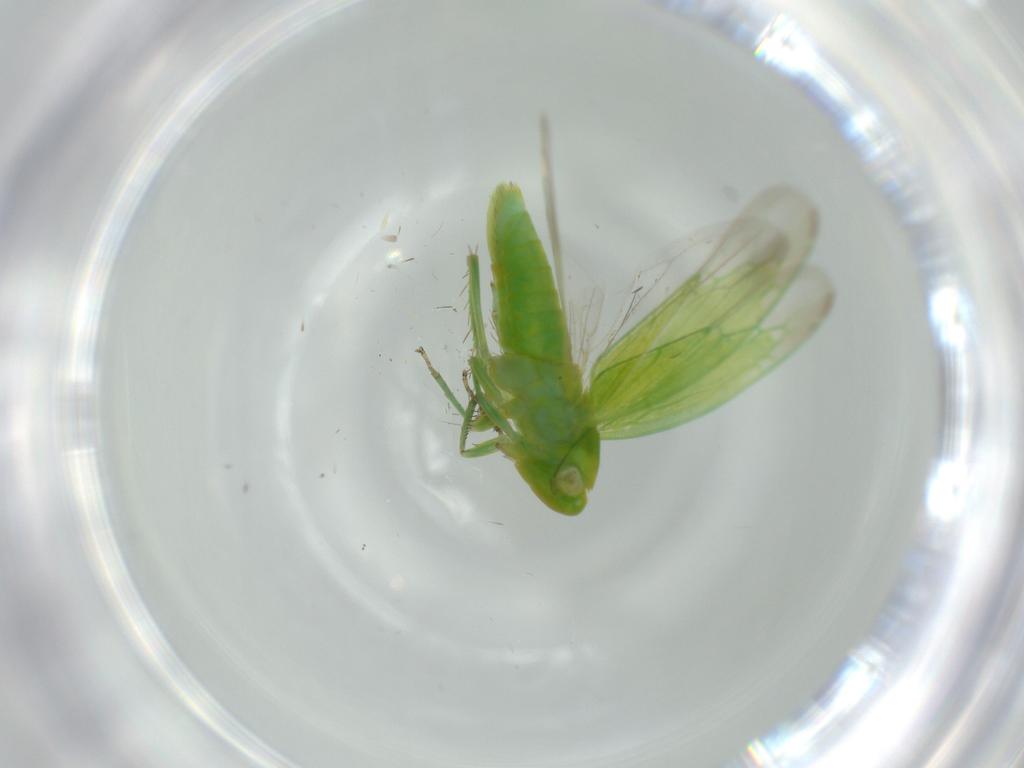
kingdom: Animalia
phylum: Arthropoda
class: Insecta
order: Hemiptera
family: Cicadellidae
